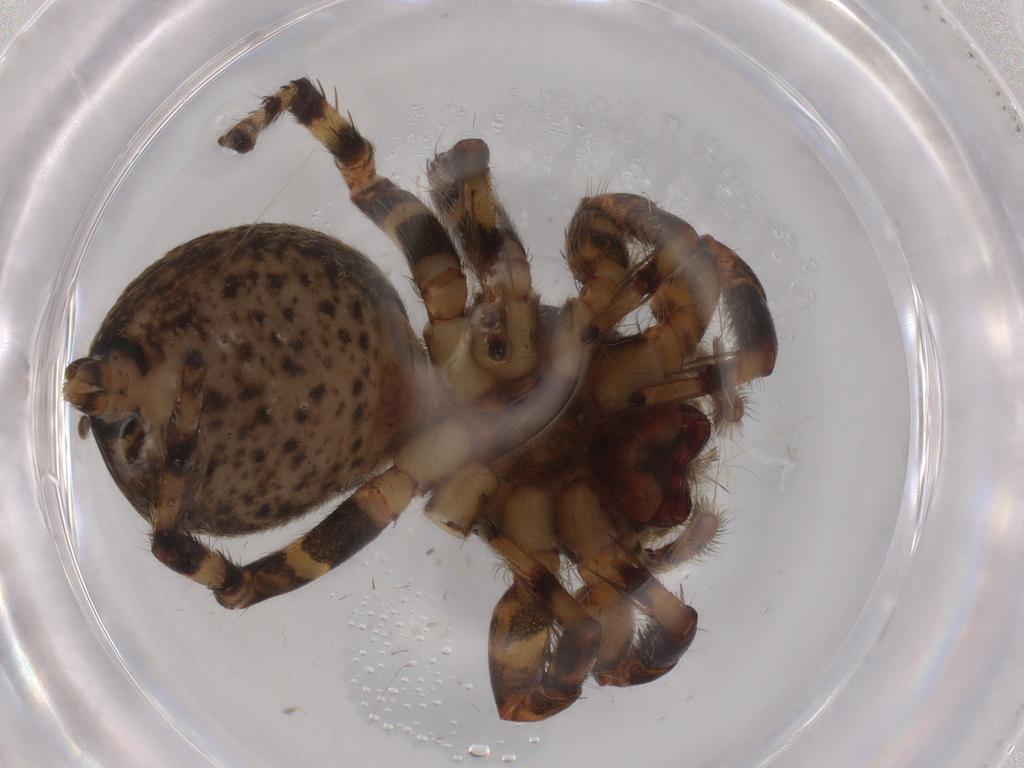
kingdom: Animalia
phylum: Arthropoda
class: Arachnida
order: Araneae
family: Salticidae
